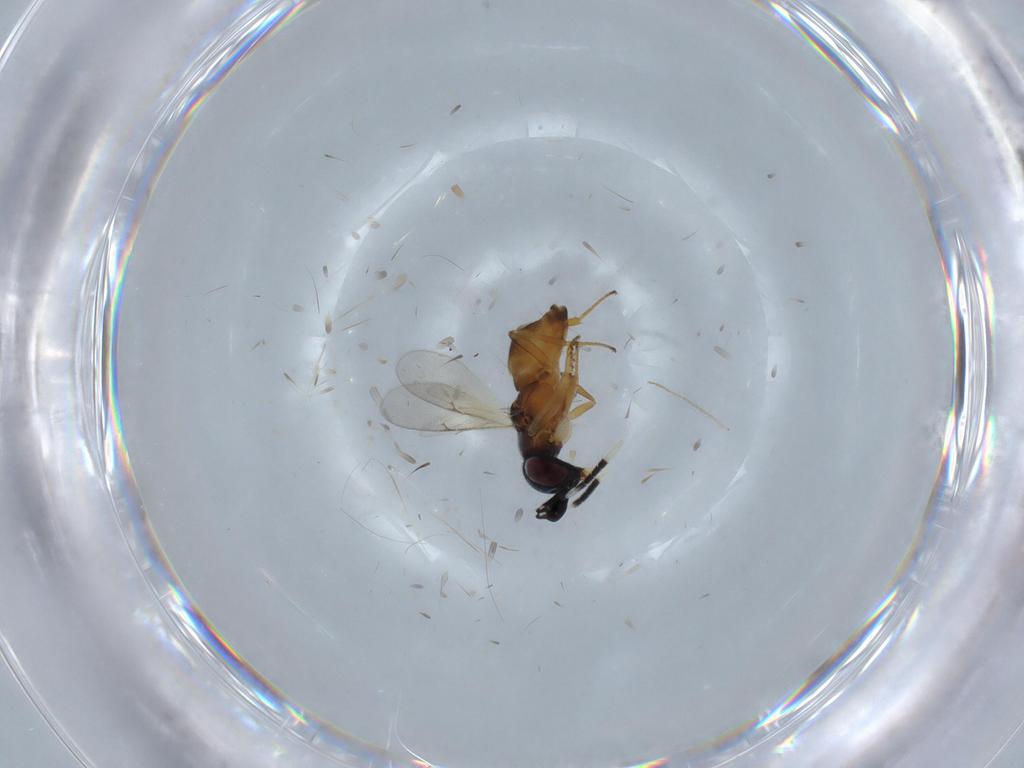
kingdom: Animalia
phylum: Arthropoda
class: Insecta
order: Hymenoptera
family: Encyrtidae
